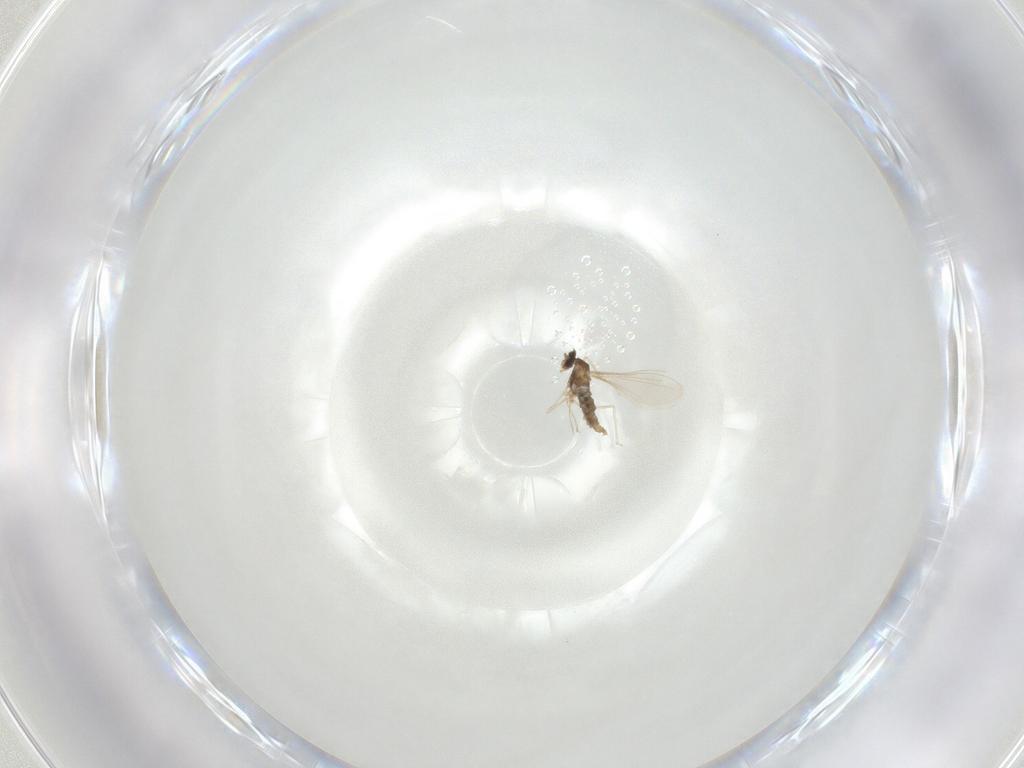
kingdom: Animalia
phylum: Arthropoda
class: Insecta
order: Diptera
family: Cecidomyiidae
